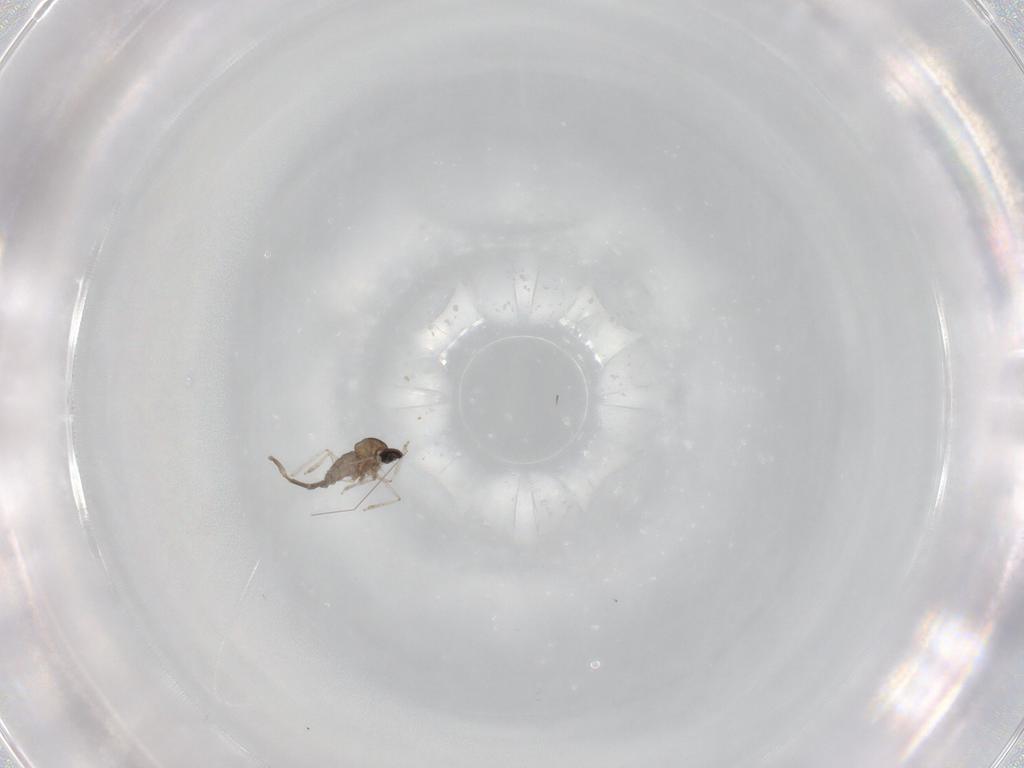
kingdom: Animalia
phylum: Arthropoda
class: Insecta
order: Diptera
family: Cecidomyiidae
